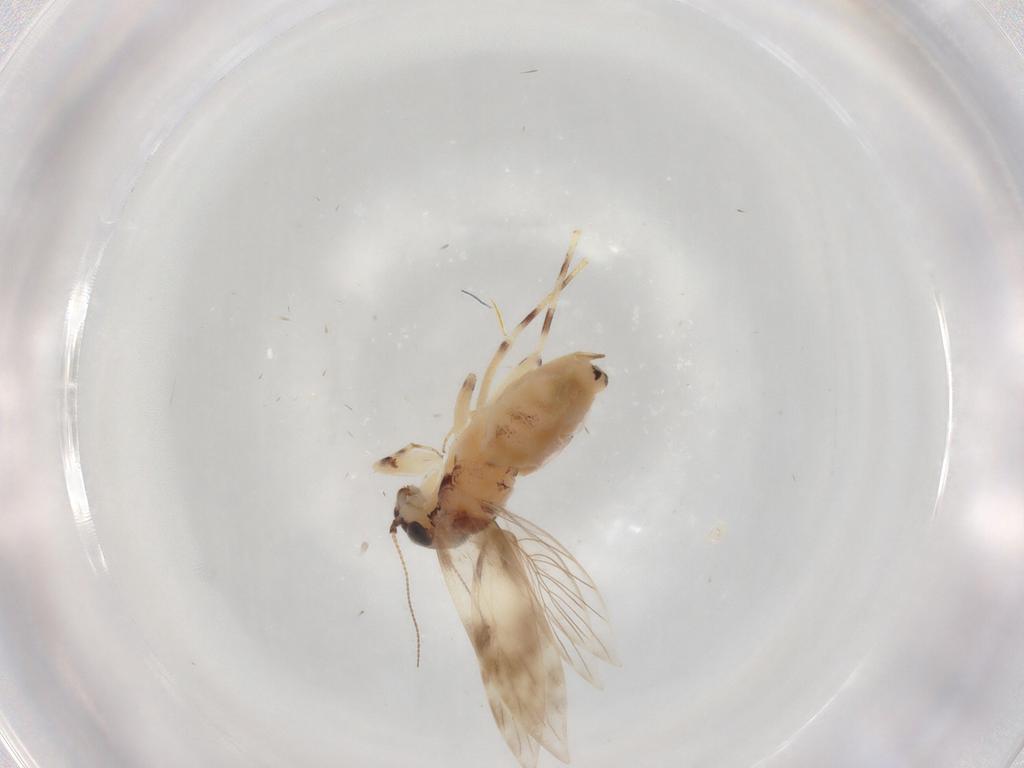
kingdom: Animalia
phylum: Arthropoda
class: Insecta
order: Psocodea
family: Lepidopsocidae
